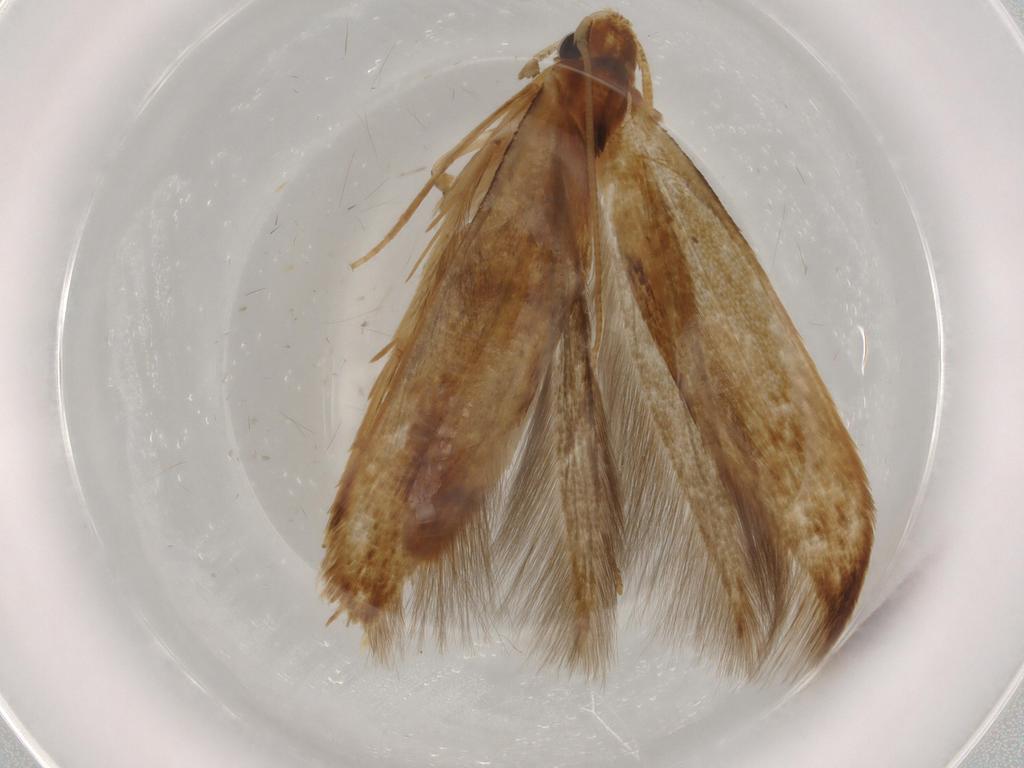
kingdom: Animalia
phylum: Arthropoda
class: Insecta
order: Lepidoptera
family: Tineidae
